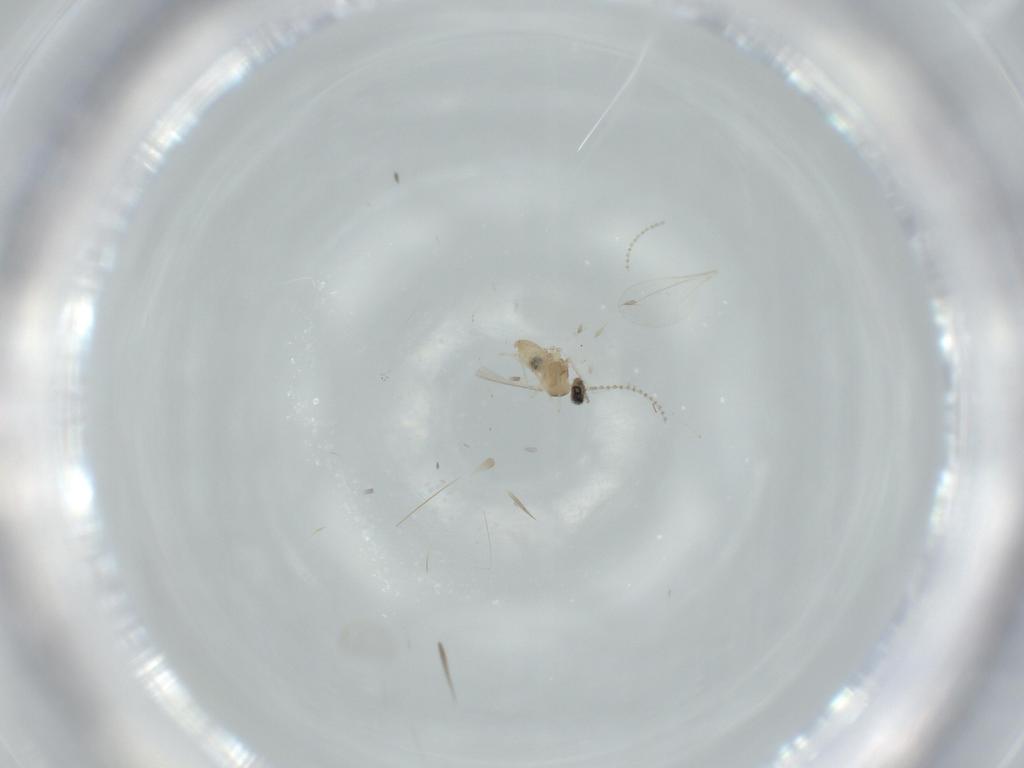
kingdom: Animalia
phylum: Arthropoda
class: Insecta
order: Diptera
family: Cecidomyiidae
